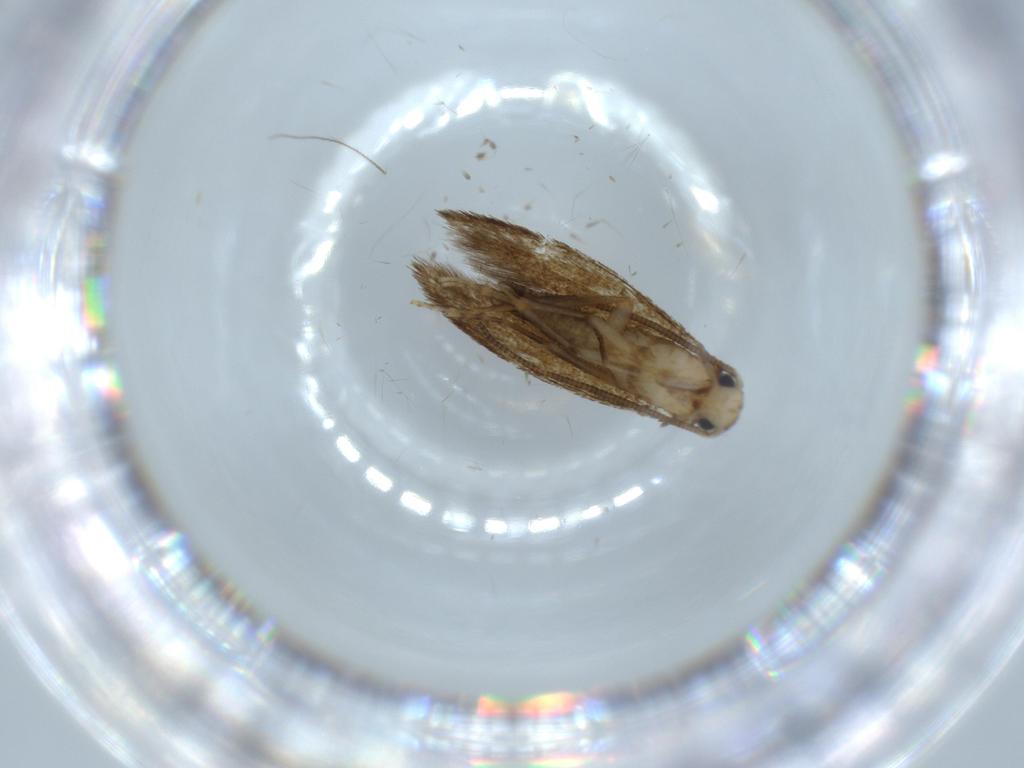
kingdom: Animalia
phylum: Arthropoda
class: Insecta
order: Lepidoptera
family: Tineidae
